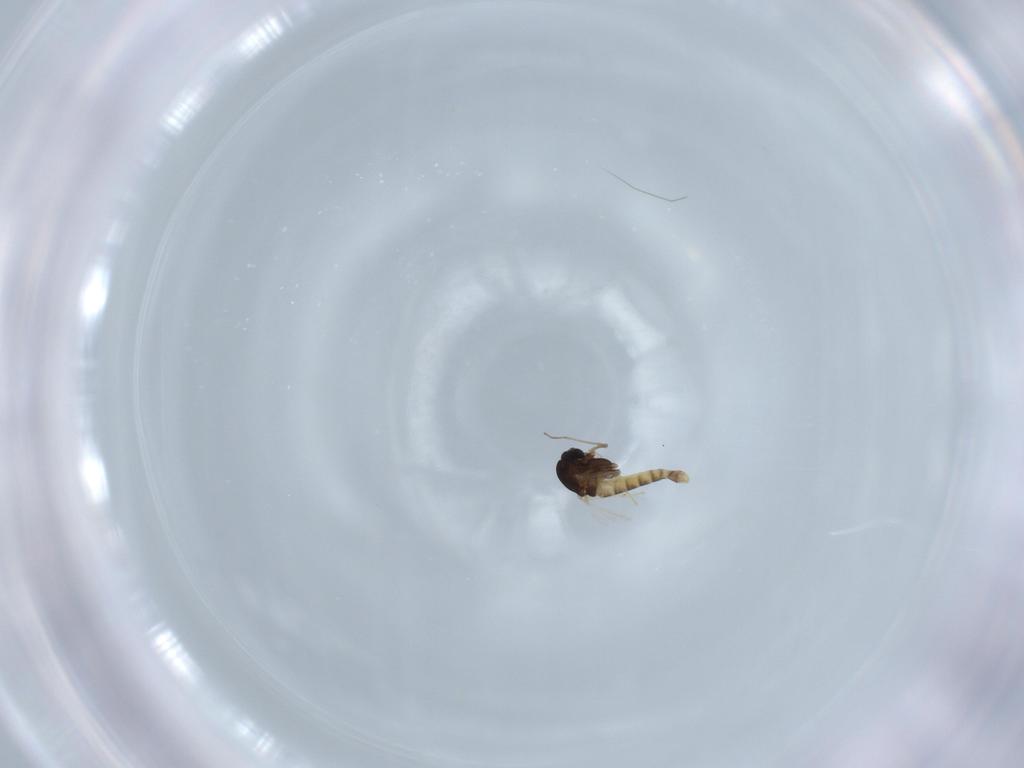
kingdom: Animalia
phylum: Arthropoda
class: Insecta
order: Diptera
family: Chironomidae
